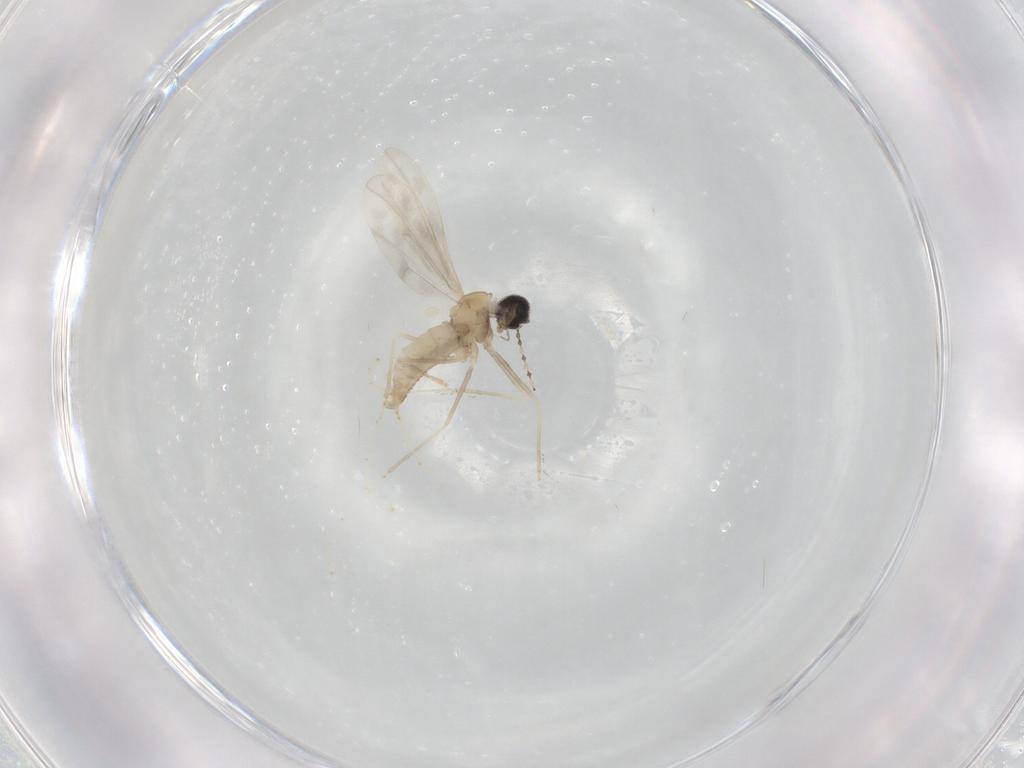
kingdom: Animalia
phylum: Arthropoda
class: Insecta
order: Diptera
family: Cecidomyiidae
